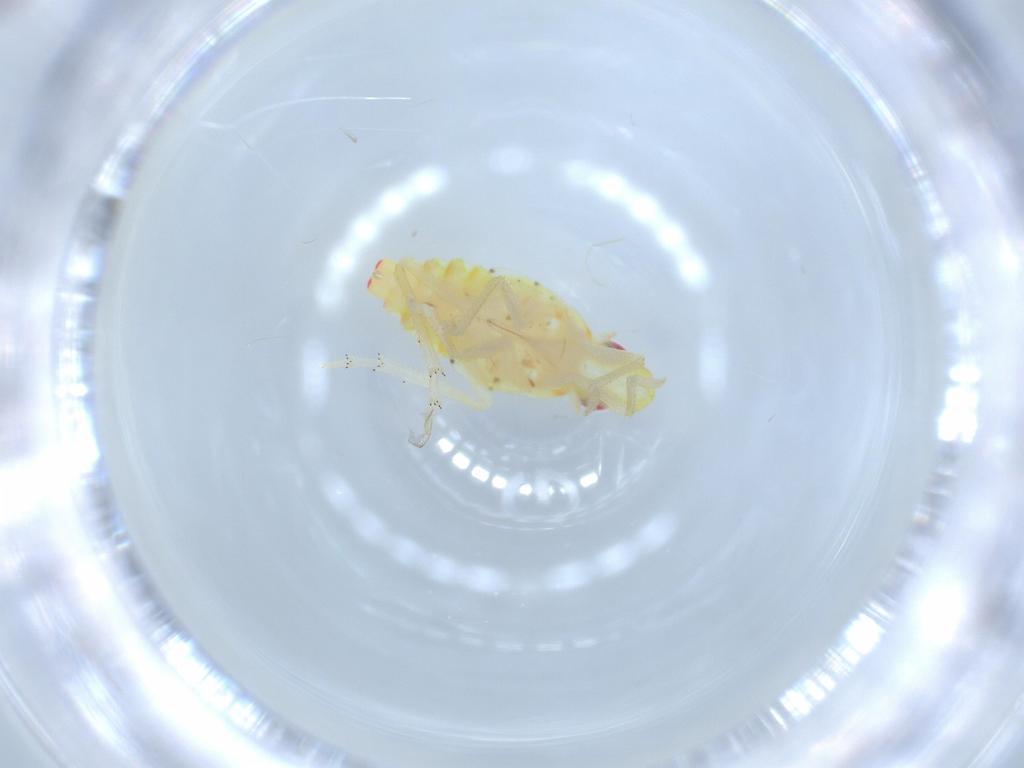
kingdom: Animalia
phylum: Arthropoda
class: Insecta
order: Hemiptera
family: Tropiduchidae
